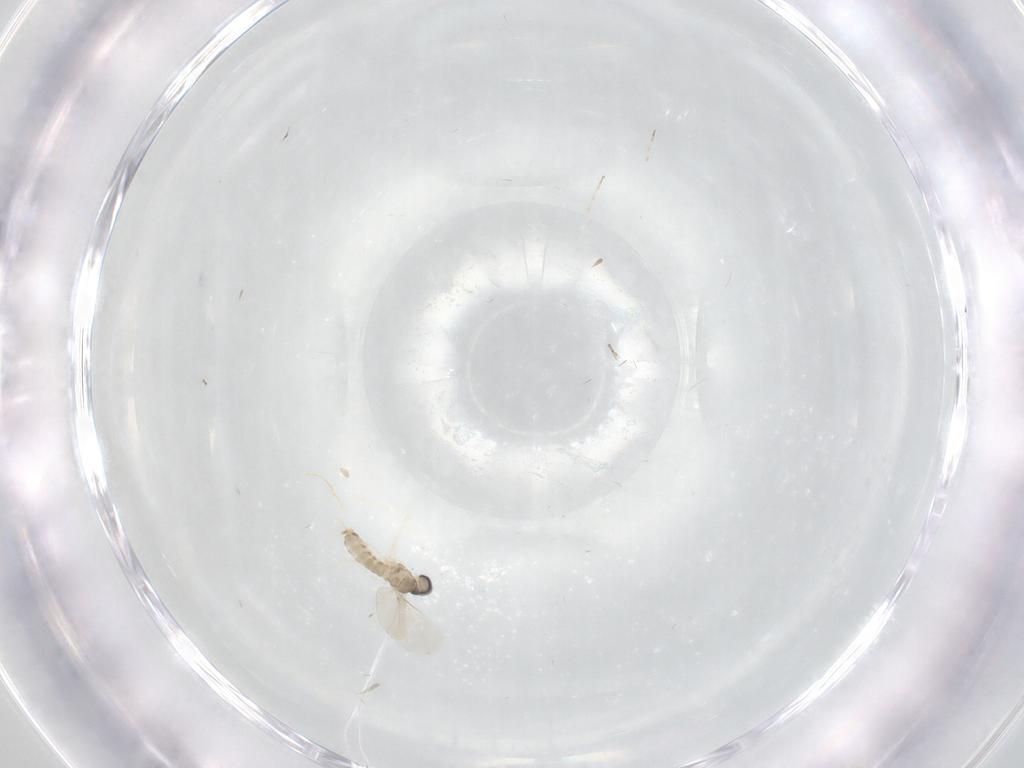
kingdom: Animalia
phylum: Arthropoda
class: Insecta
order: Diptera
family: Cecidomyiidae
